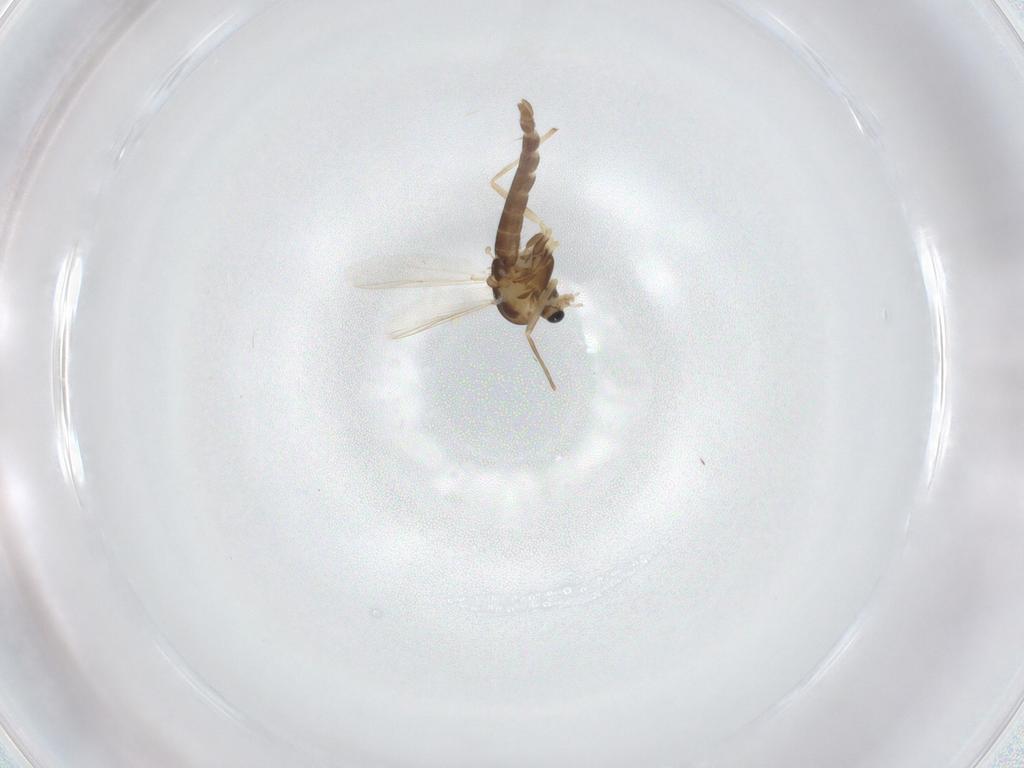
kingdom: Animalia
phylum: Arthropoda
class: Insecta
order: Diptera
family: Chironomidae
